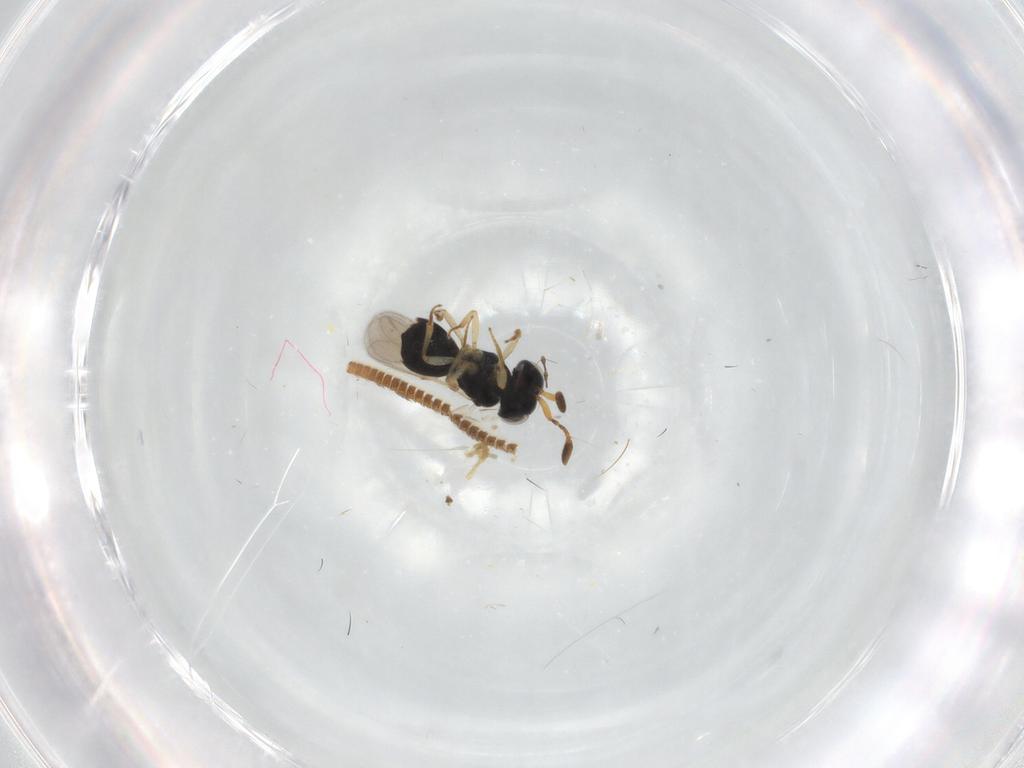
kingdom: Animalia
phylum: Arthropoda
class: Insecta
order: Hymenoptera
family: Scelionidae
